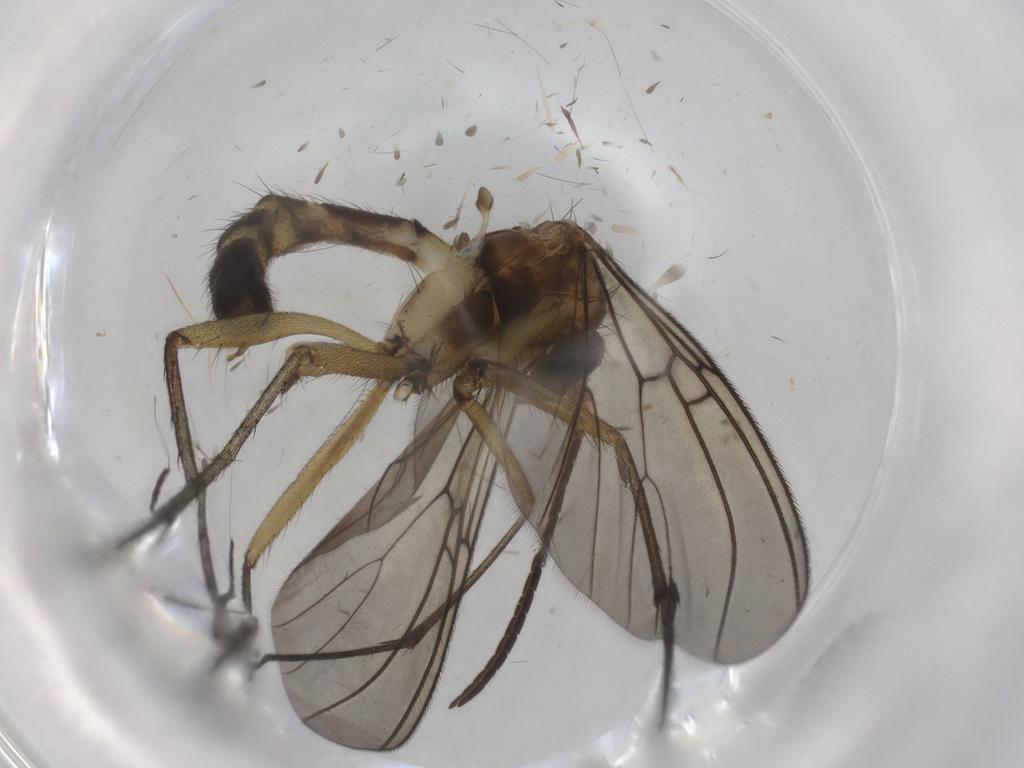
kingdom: Animalia
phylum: Arthropoda
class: Insecta
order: Diptera
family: Mycetophilidae
